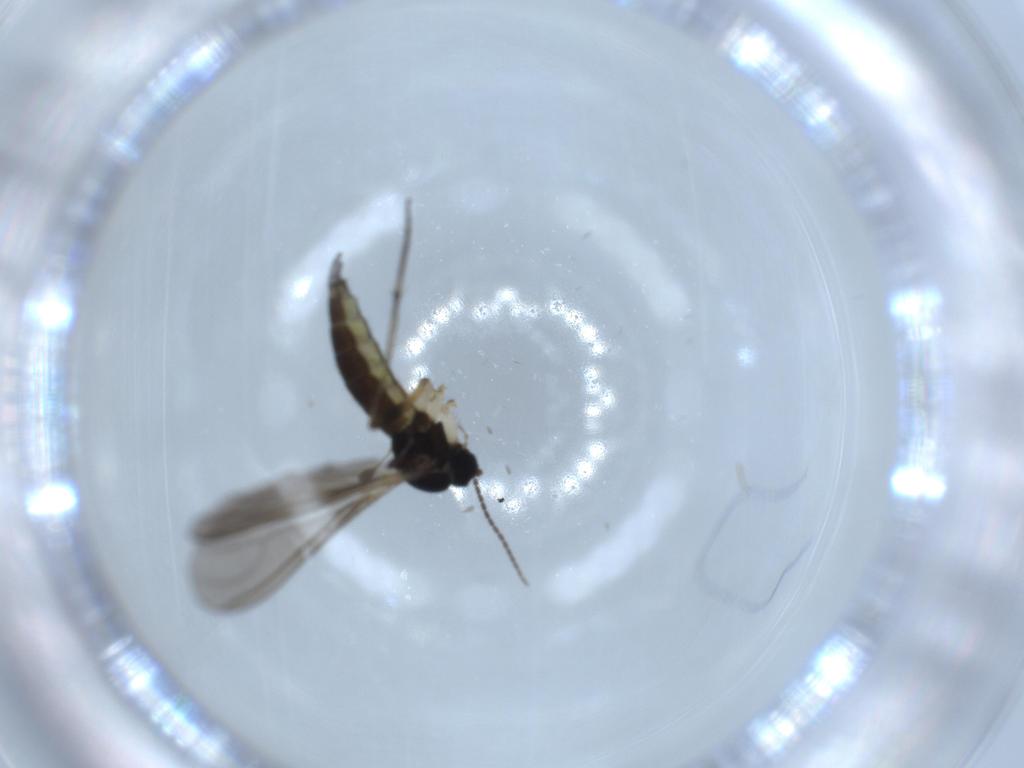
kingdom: Animalia
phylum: Arthropoda
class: Insecta
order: Diptera
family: Sciaridae
